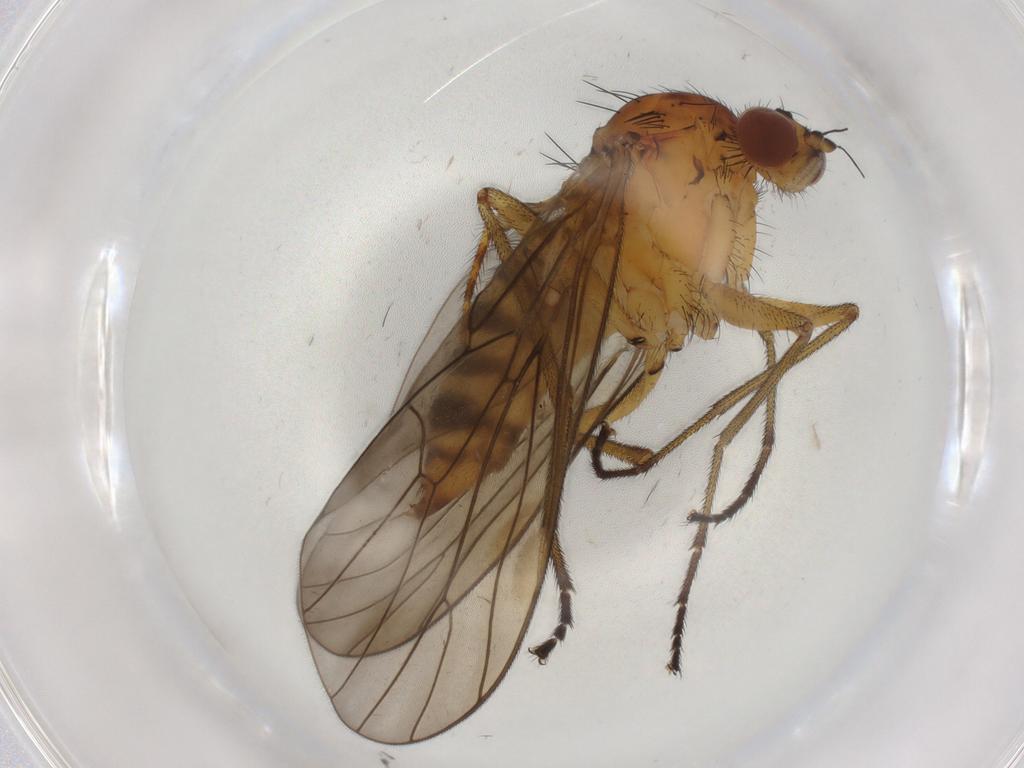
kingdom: Animalia
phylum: Arthropoda
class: Insecta
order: Diptera
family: Brachystomatidae
